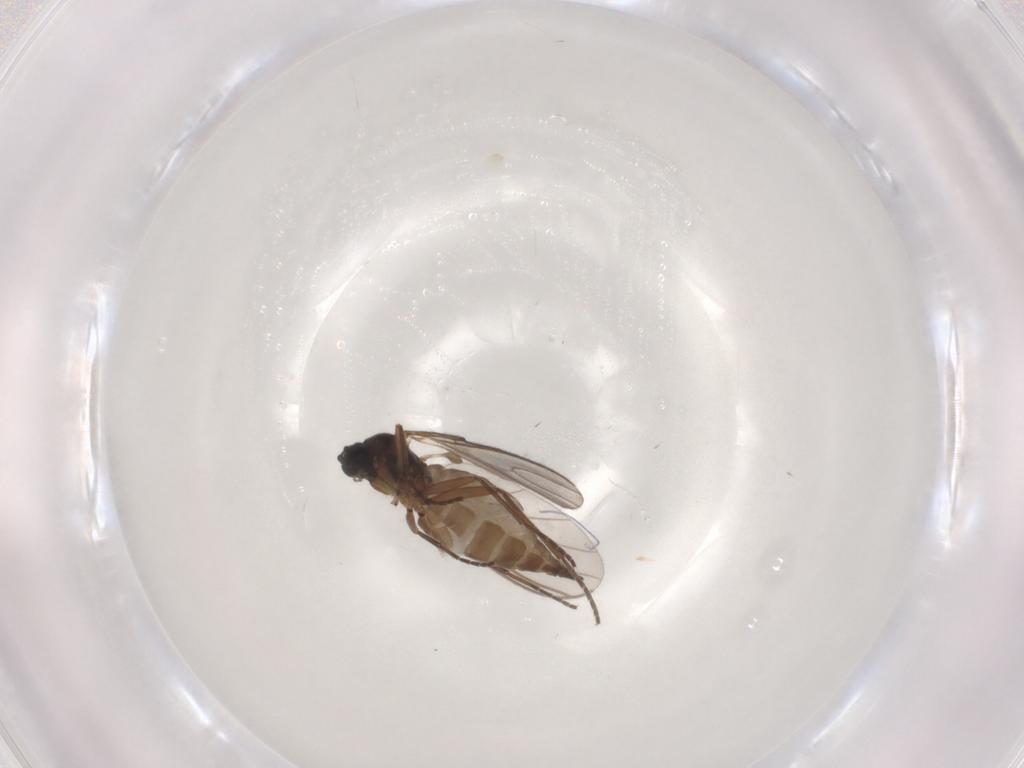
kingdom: Animalia
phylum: Arthropoda
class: Insecta
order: Diptera
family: Sciaridae
